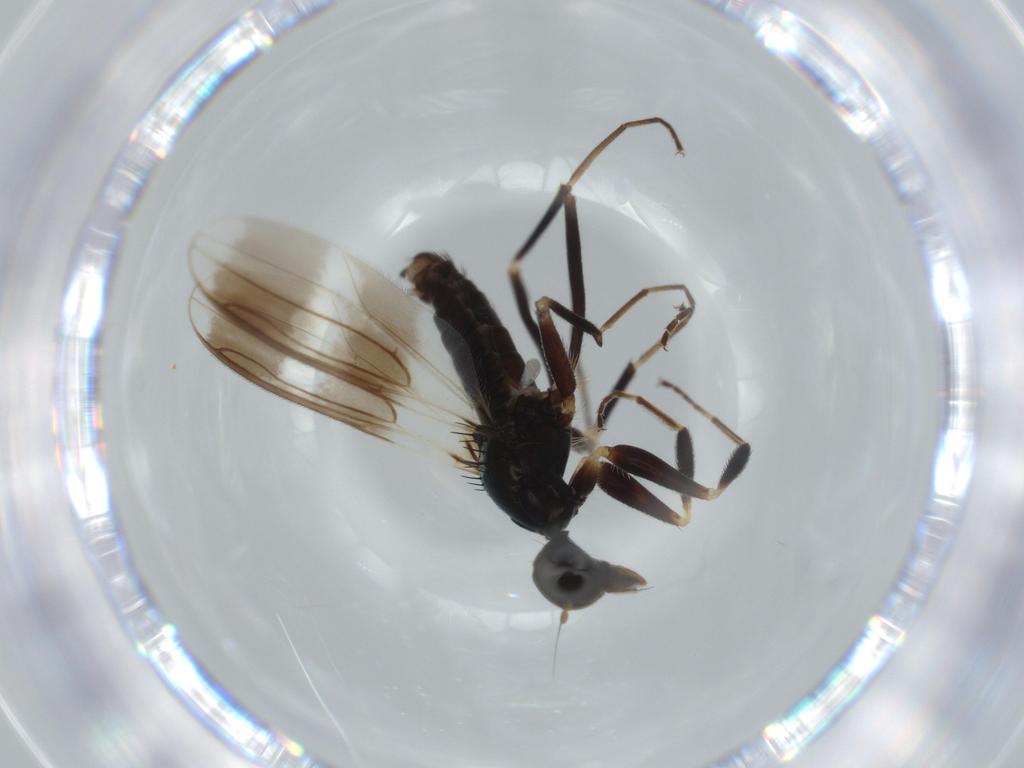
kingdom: Animalia
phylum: Arthropoda
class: Insecta
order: Diptera
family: Hybotidae
